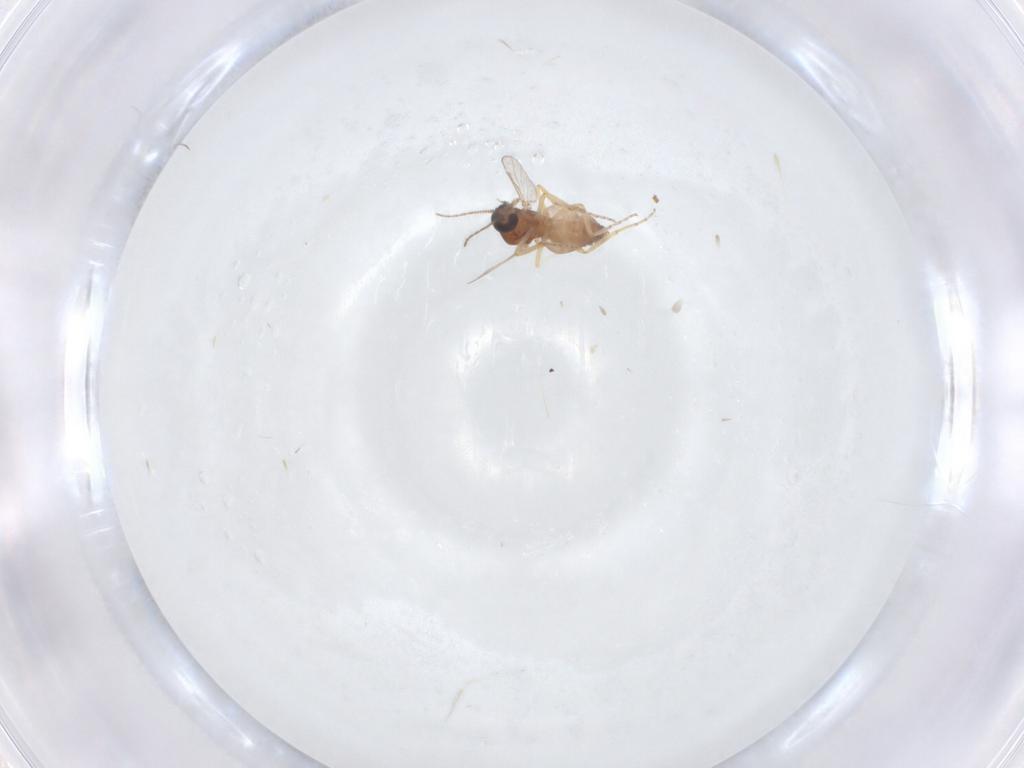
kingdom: Animalia
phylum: Arthropoda
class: Insecta
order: Diptera
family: Ceratopogonidae
